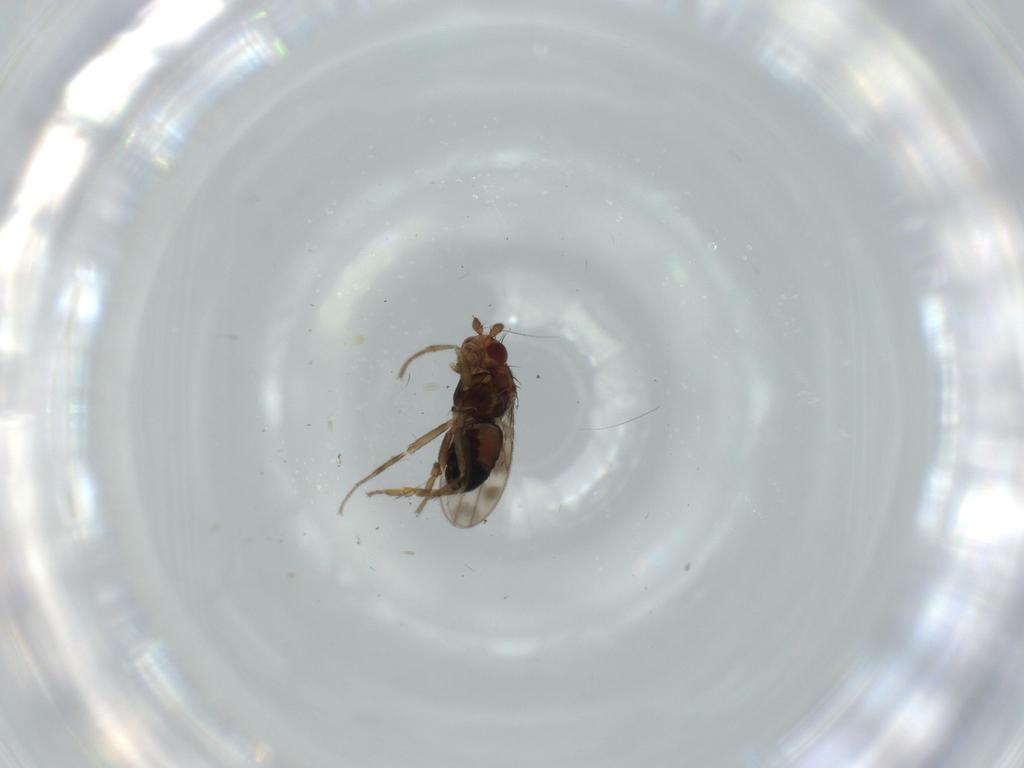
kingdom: Animalia
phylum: Arthropoda
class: Insecta
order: Diptera
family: Sphaeroceridae
